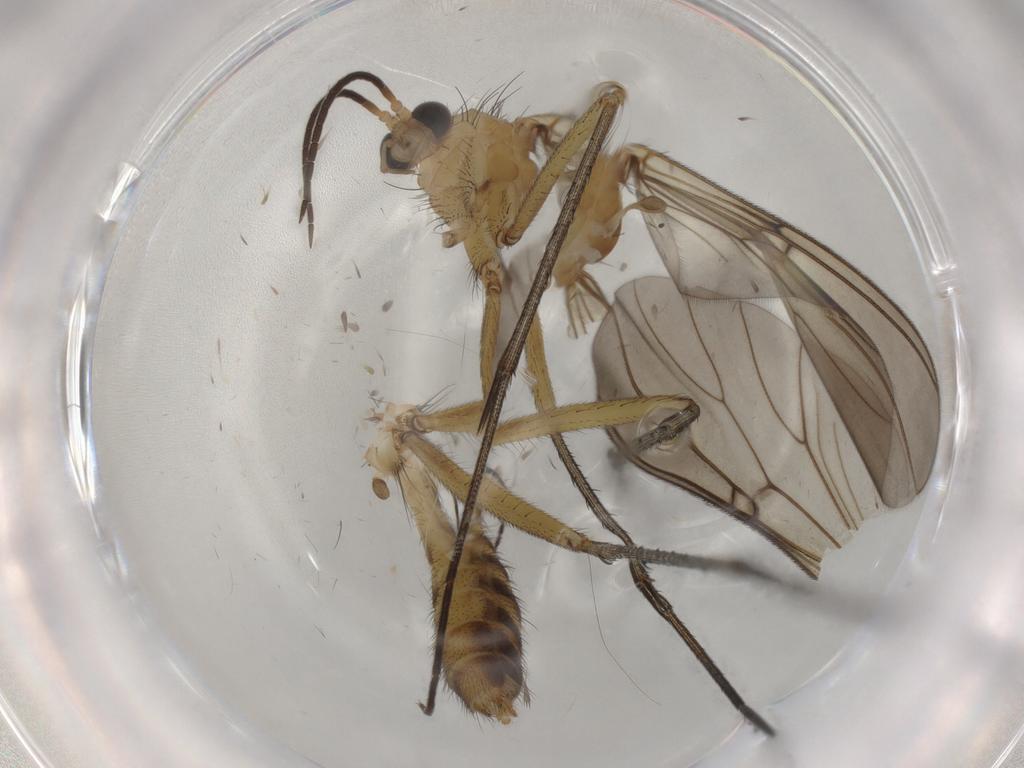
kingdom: Animalia
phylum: Arthropoda
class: Insecta
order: Diptera
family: Mycetophilidae
